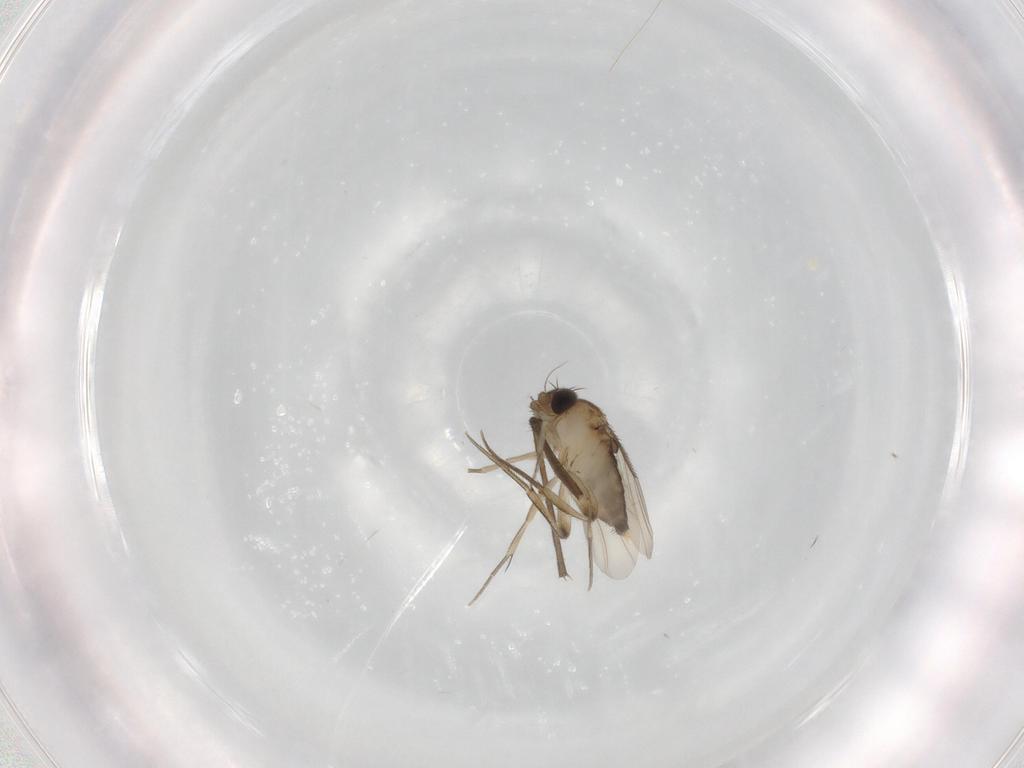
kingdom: Animalia
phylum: Arthropoda
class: Insecta
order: Diptera
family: Phoridae
